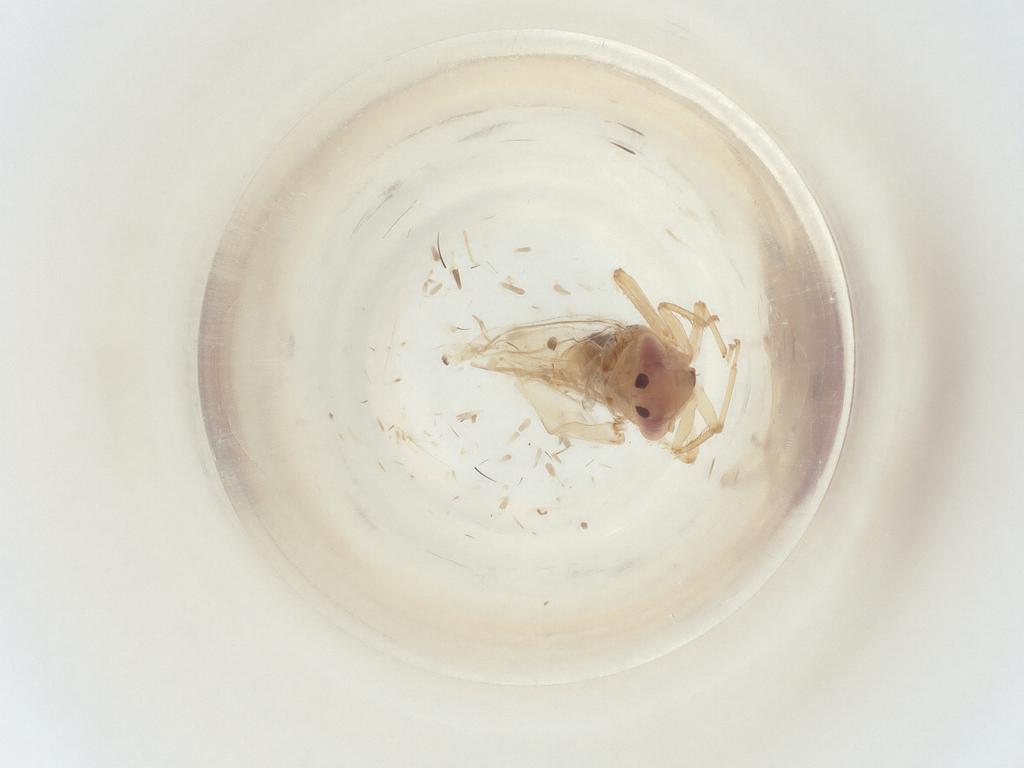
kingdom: Animalia
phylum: Arthropoda
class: Insecta
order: Hemiptera
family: Cicadellidae
